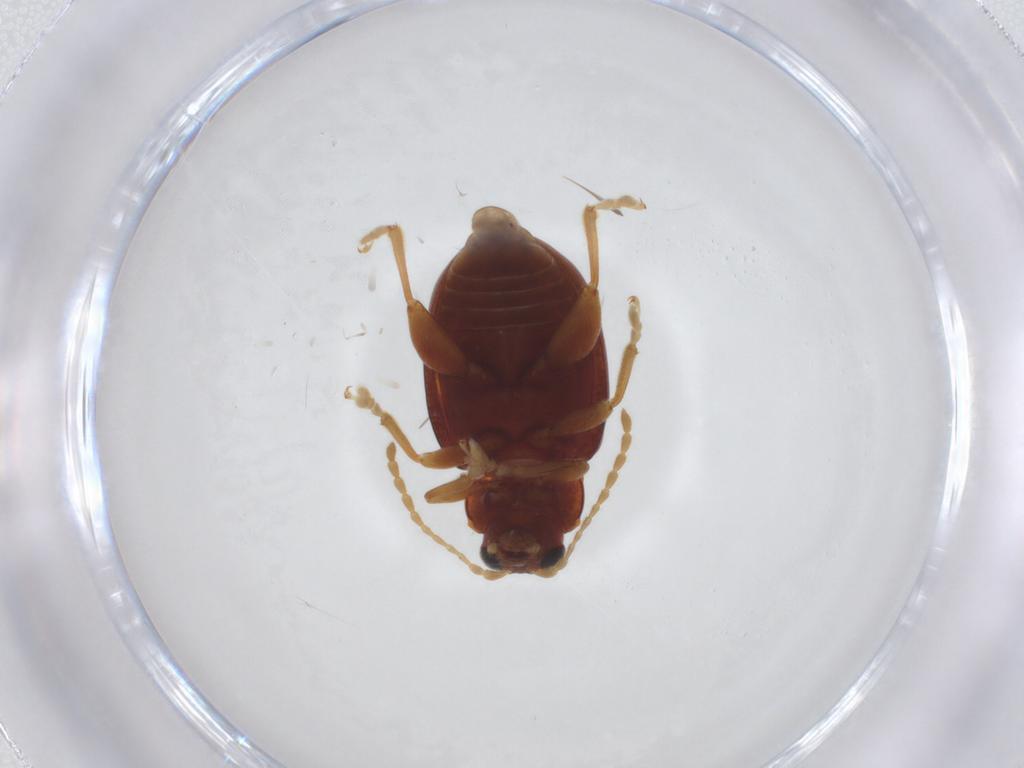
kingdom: Animalia
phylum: Arthropoda
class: Insecta
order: Coleoptera
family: Chrysomelidae
